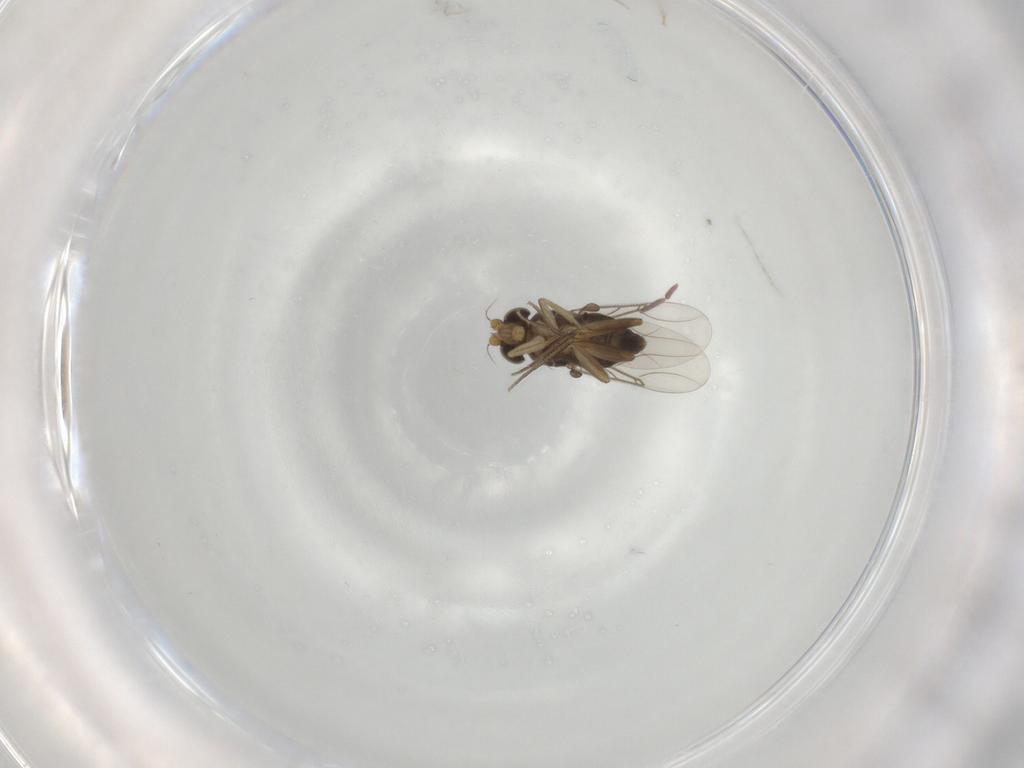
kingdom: Animalia
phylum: Arthropoda
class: Insecta
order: Diptera
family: Phoridae
